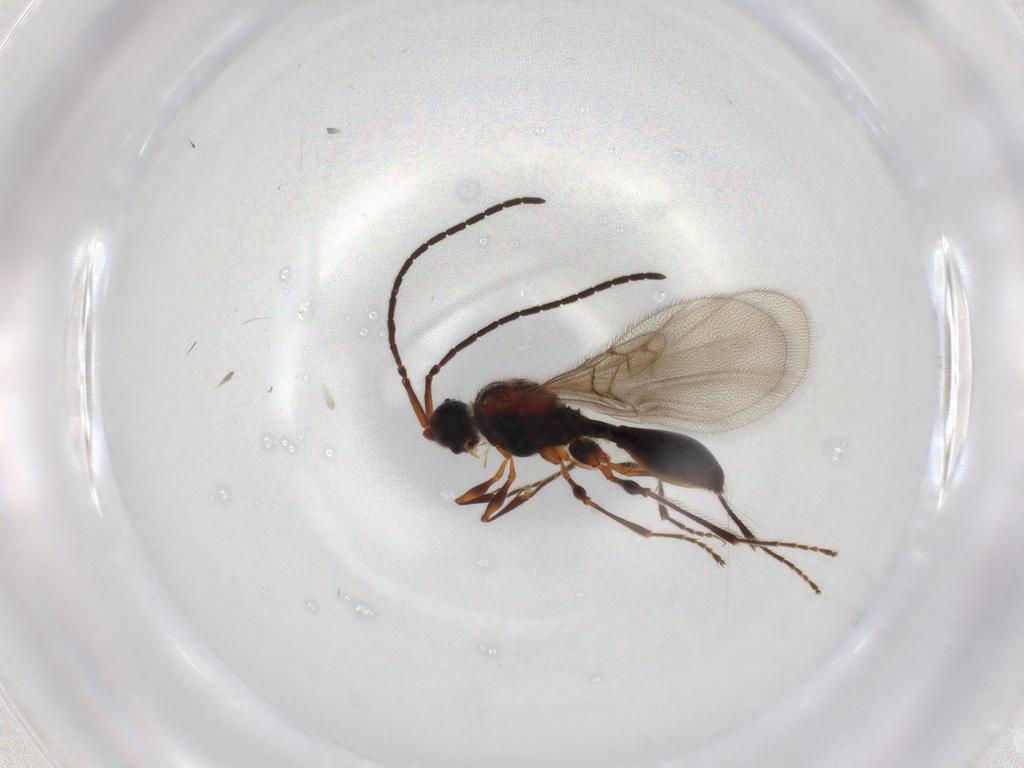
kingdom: Animalia
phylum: Arthropoda
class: Insecta
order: Hymenoptera
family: Diapriidae
